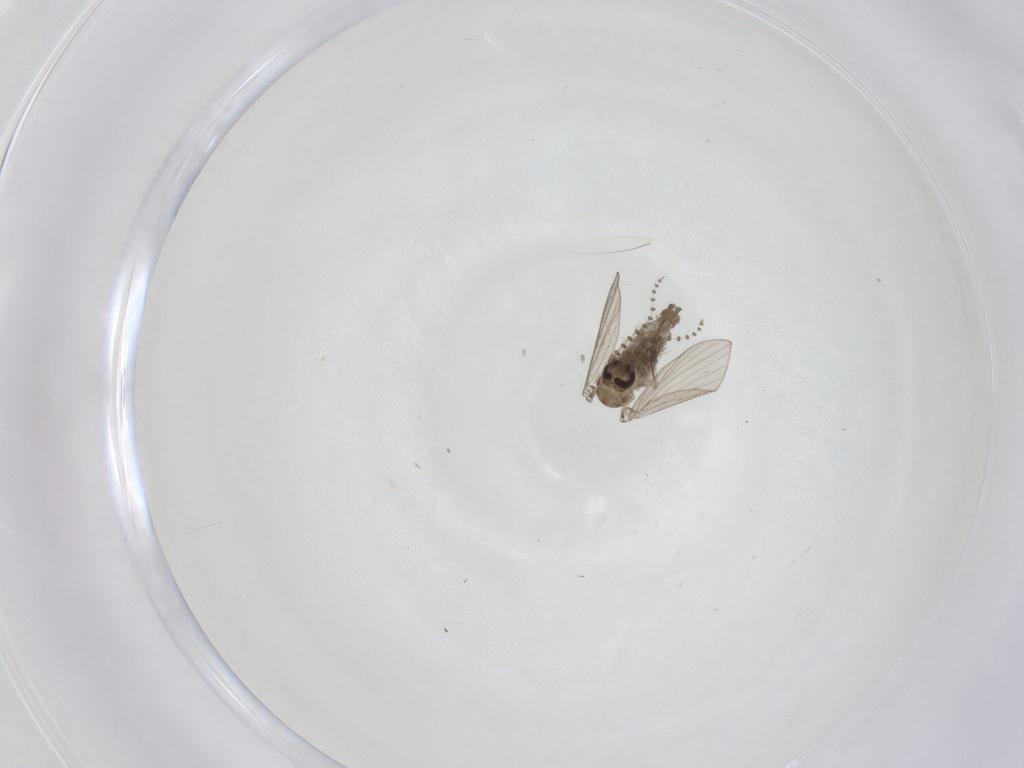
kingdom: Animalia
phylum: Arthropoda
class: Insecta
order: Diptera
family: Psychodidae
